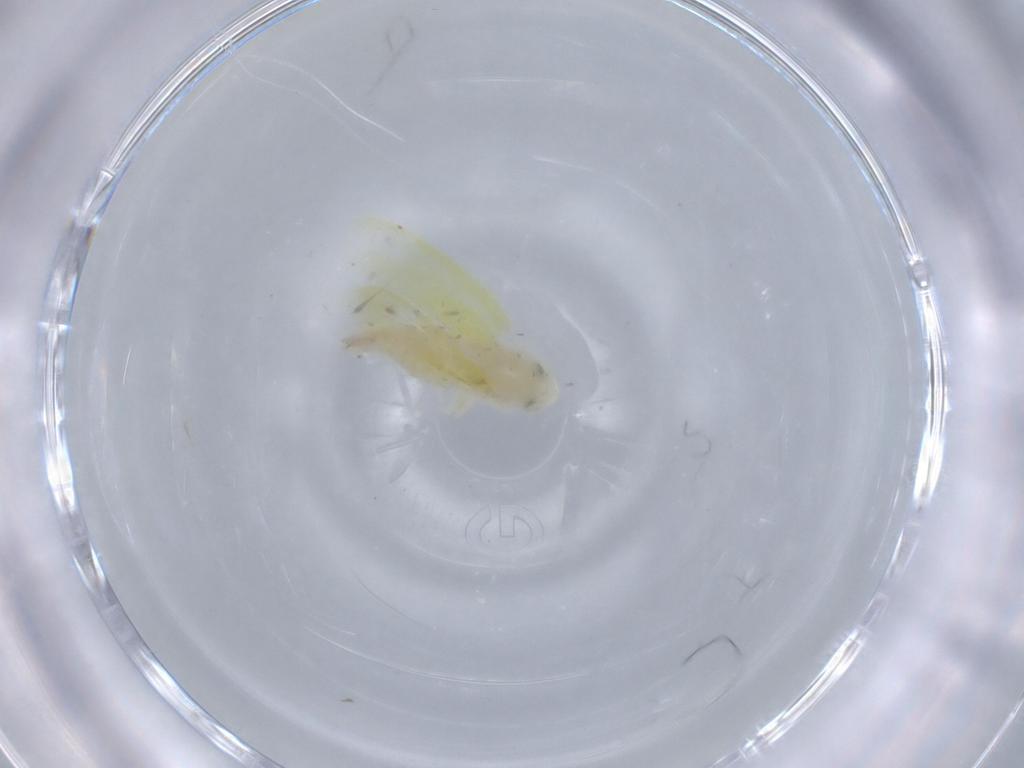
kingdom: Animalia
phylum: Arthropoda
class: Insecta
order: Hemiptera
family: Cicadellidae
